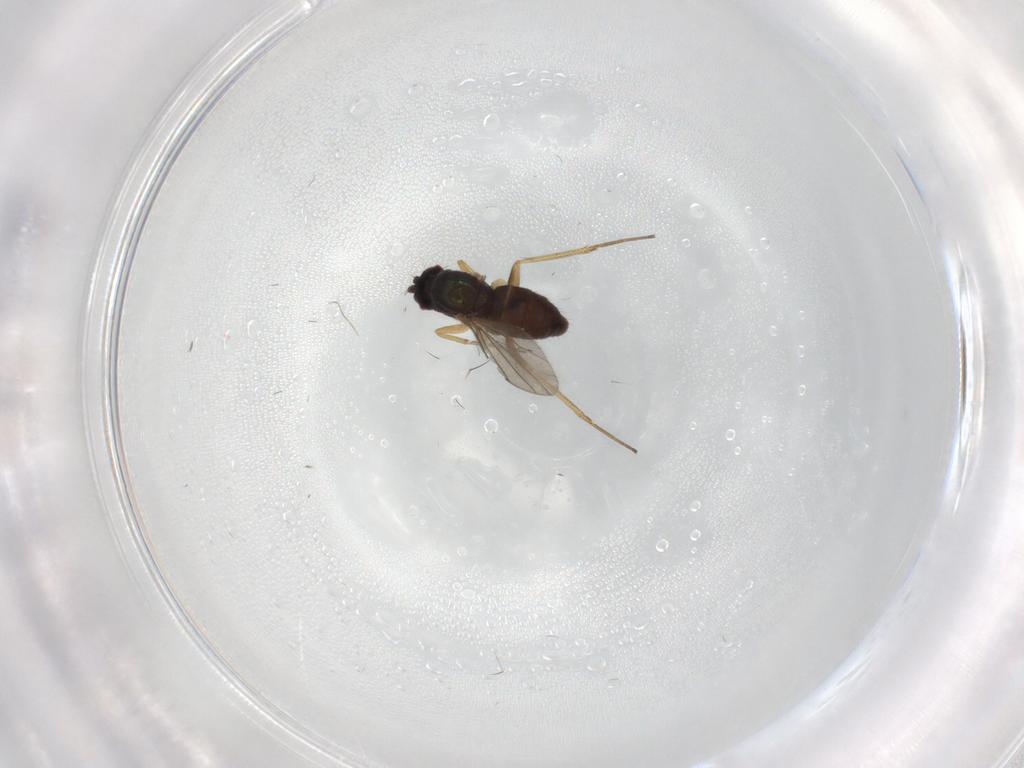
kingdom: Animalia
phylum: Arthropoda
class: Insecta
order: Diptera
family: Dolichopodidae
